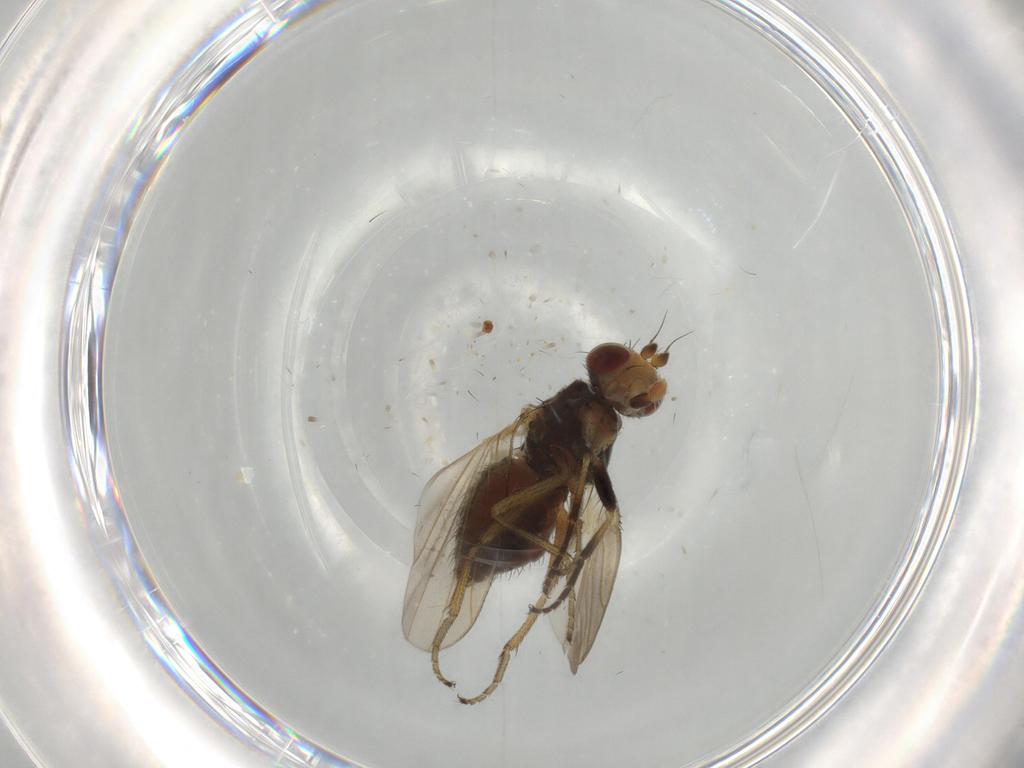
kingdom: Animalia
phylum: Arthropoda
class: Insecta
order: Diptera
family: Ulidiidae
